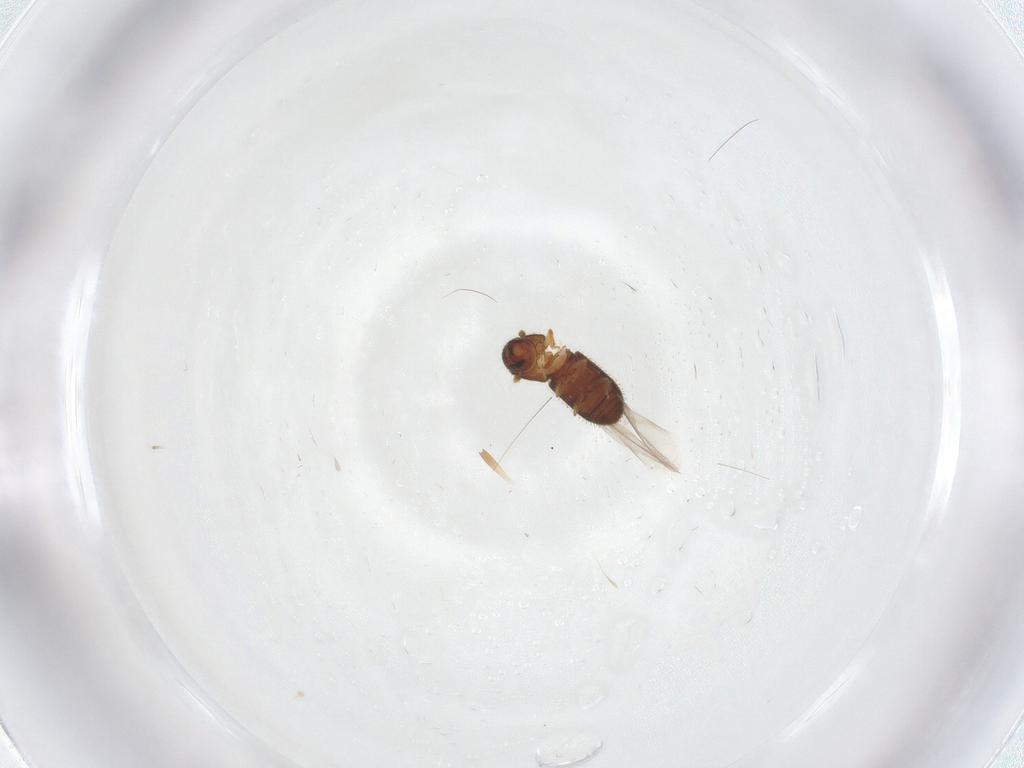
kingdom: Animalia
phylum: Arthropoda
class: Insecta
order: Coleoptera
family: Curculionidae
